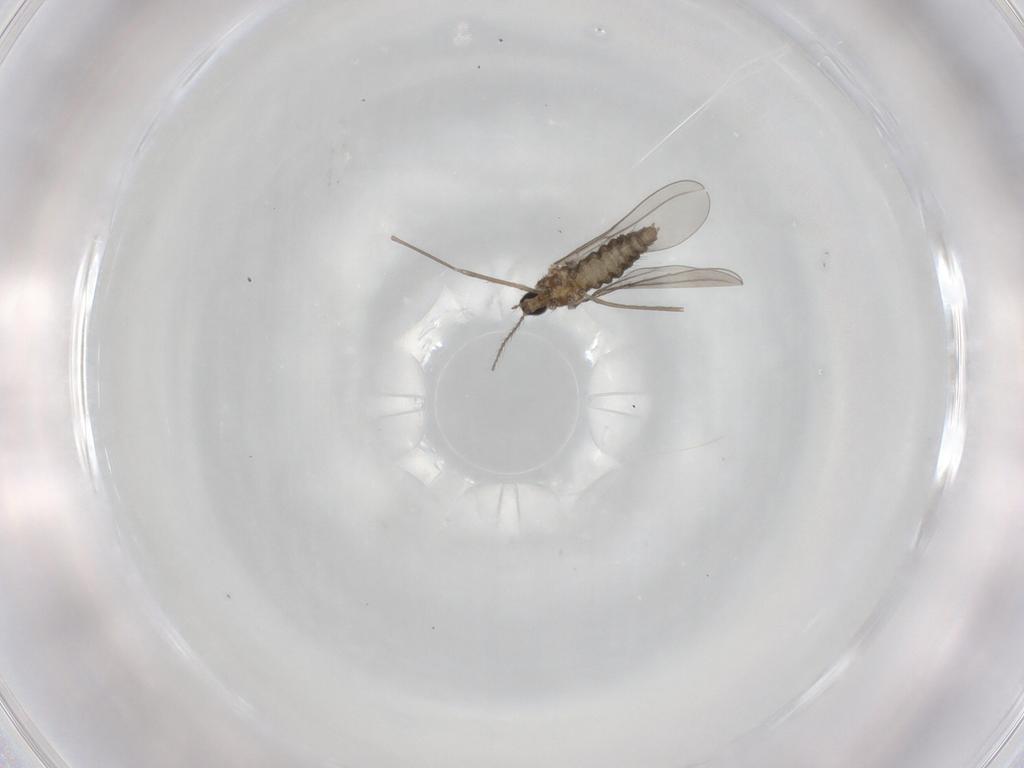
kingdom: Animalia
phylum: Arthropoda
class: Insecta
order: Diptera
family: Cecidomyiidae
